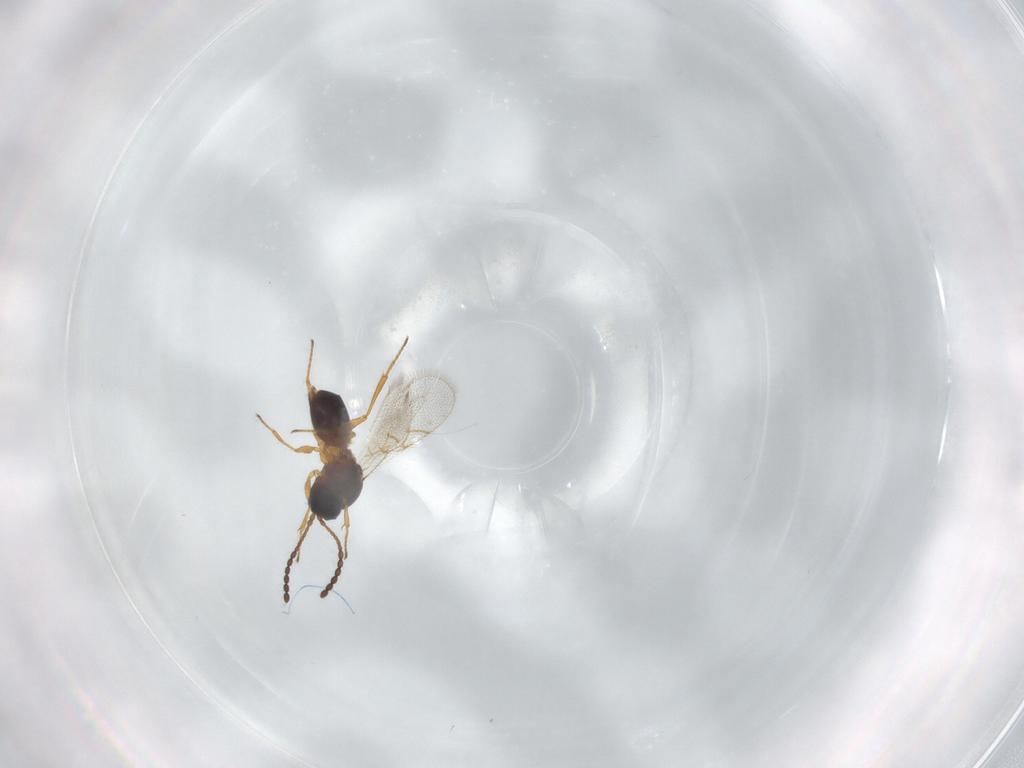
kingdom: Animalia
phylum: Arthropoda
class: Insecta
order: Hymenoptera
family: Figitidae
